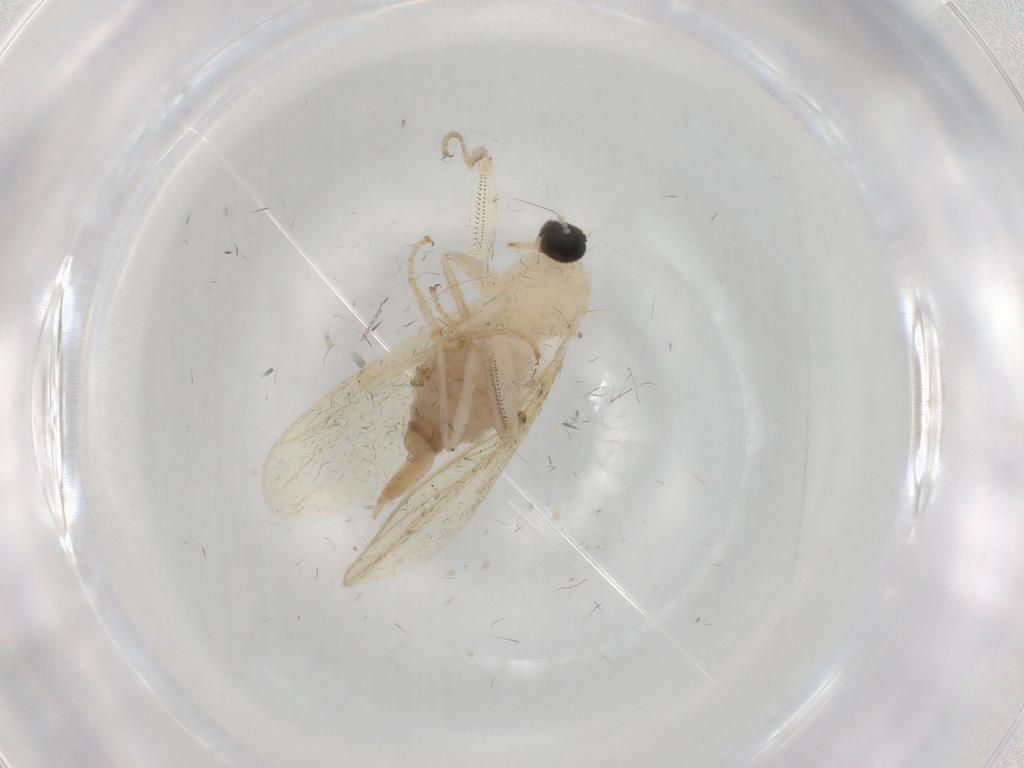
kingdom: Animalia
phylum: Arthropoda
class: Insecta
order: Diptera
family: Hybotidae
